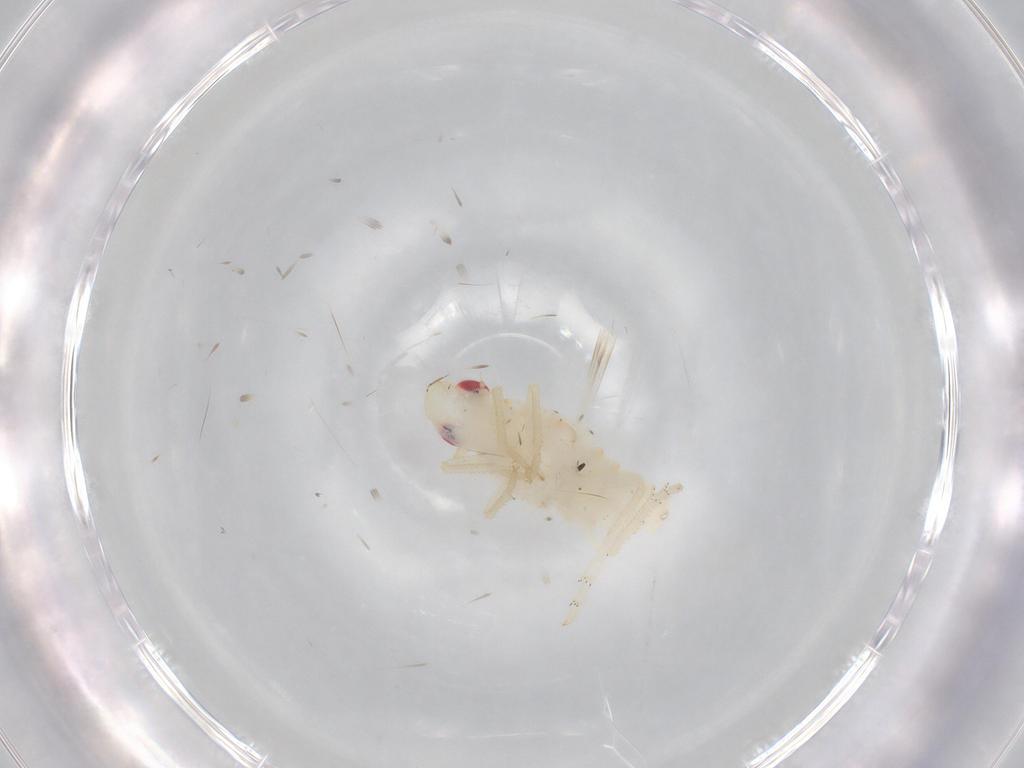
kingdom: Animalia
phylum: Arthropoda
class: Insecta
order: Hemiptera
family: Tropiduchidae
